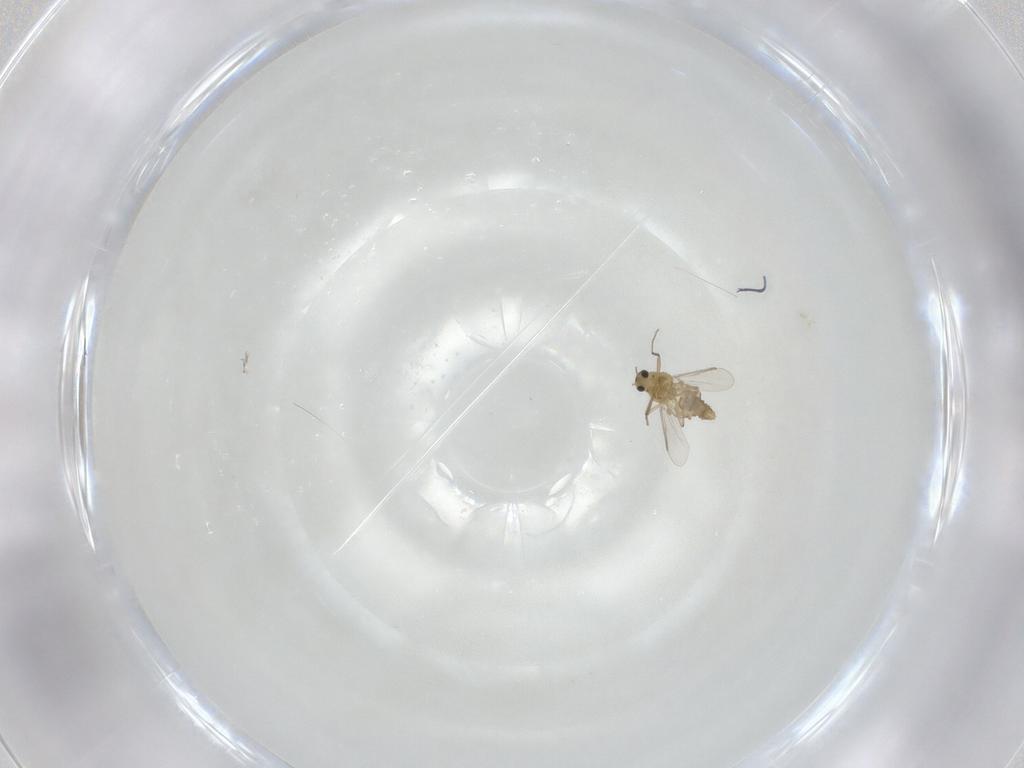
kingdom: Animalia
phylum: Arthropoda
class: Insecta
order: Diptera
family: Chironomidae
